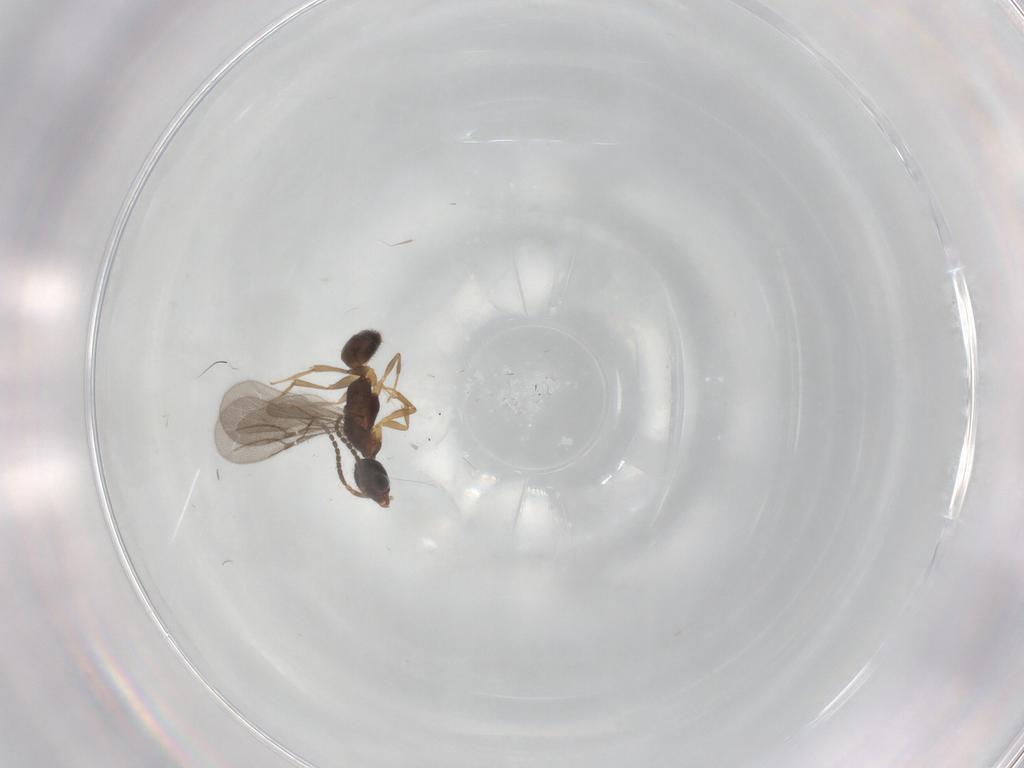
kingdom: Animalia
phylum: Arthropoda
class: Insecta
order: Hymenoptera
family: Bethylidae
